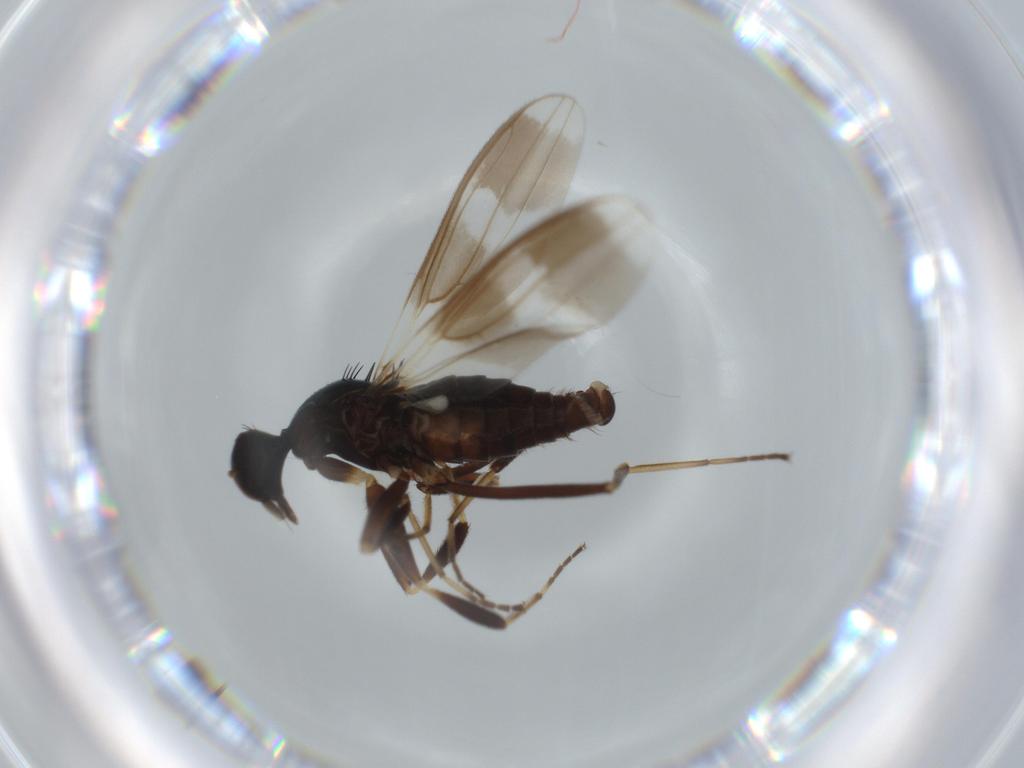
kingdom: Animalia
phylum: Arthropoda
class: Insecta
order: Diptera
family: Hybotidae
